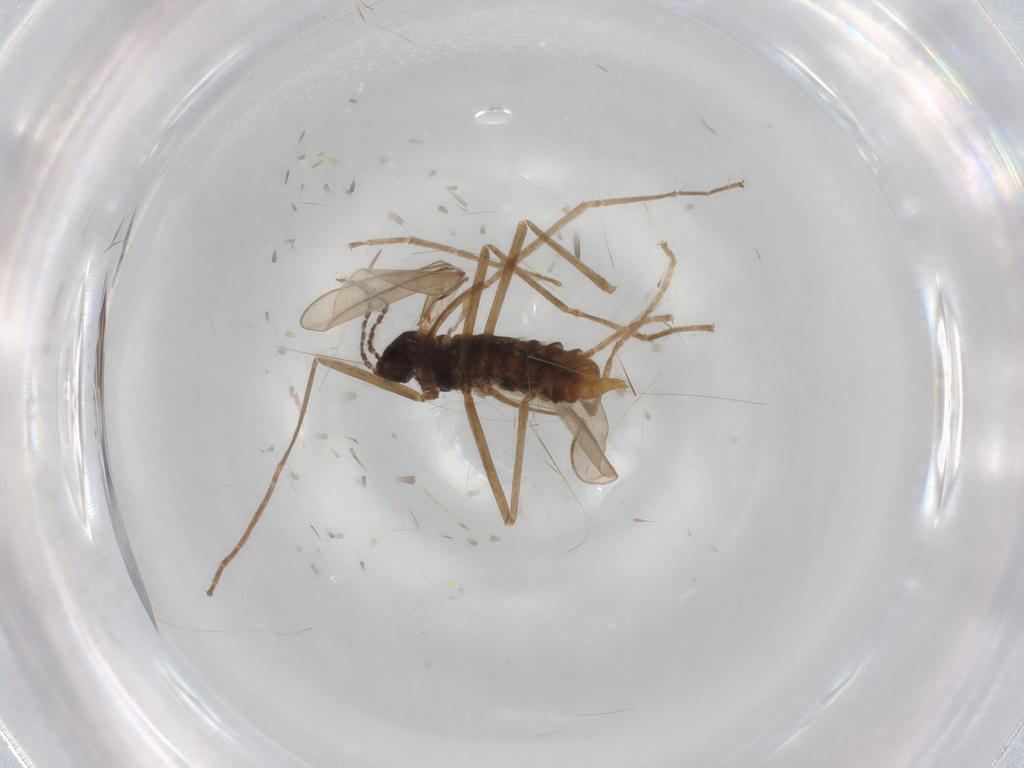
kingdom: Animalia
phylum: Arthropoda
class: Insecta
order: Diptera
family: Cecidomyiidae
